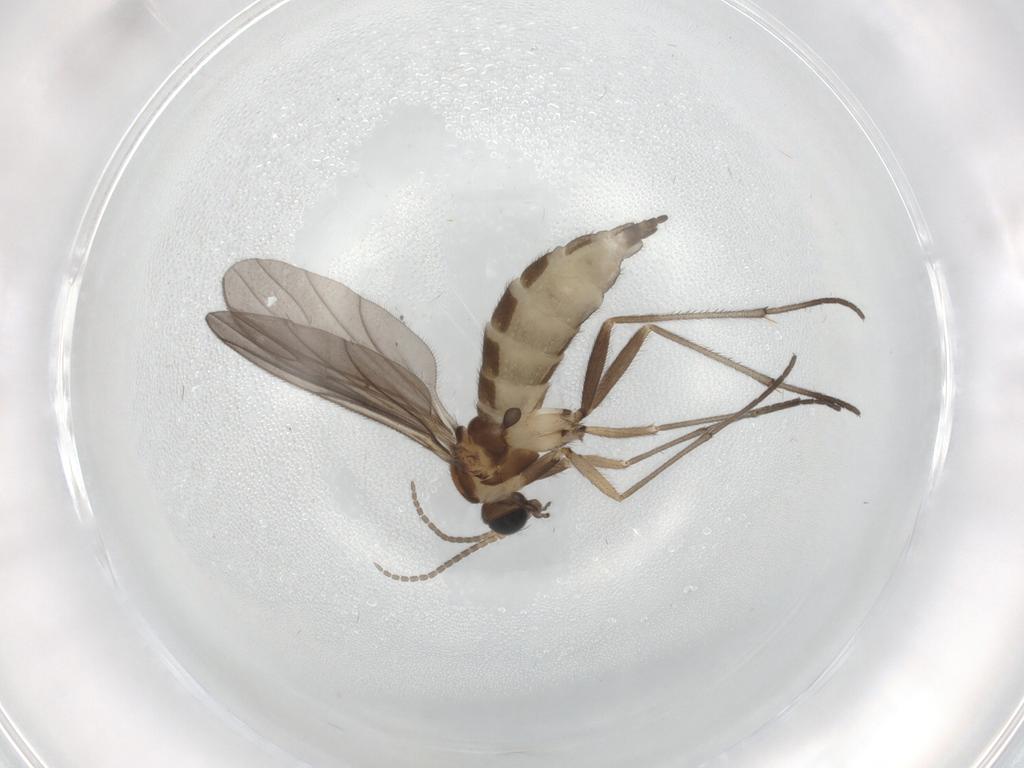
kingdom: Animalia
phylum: Arthropoda
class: Insecta
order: Diptera
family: Sciaridae
